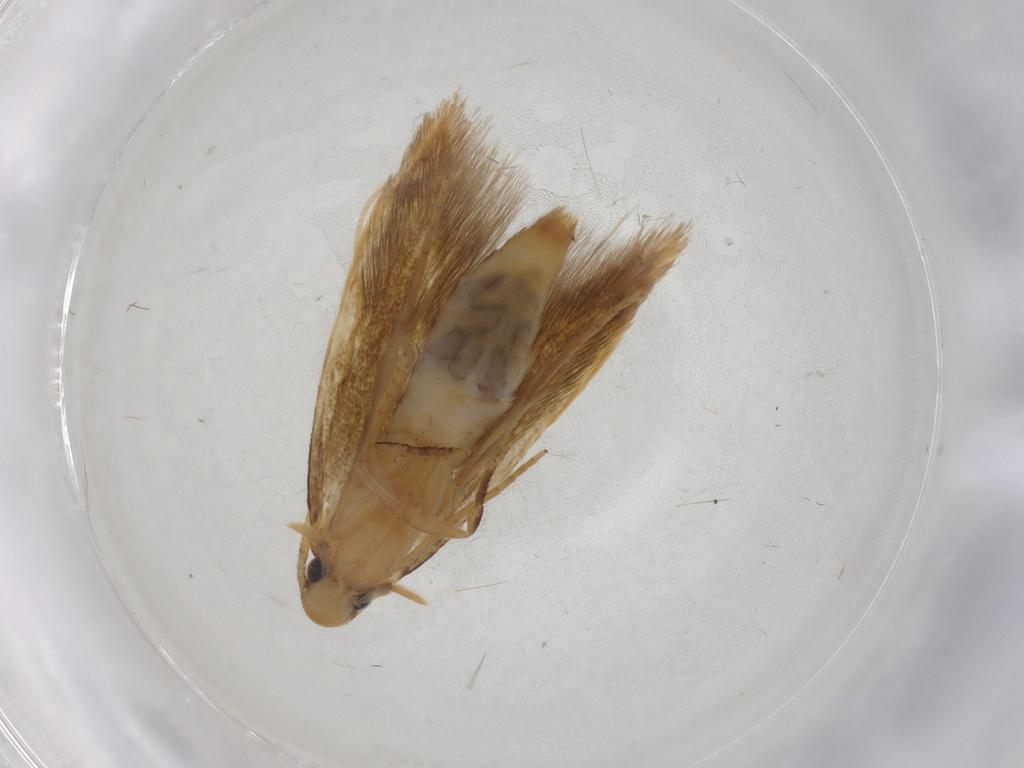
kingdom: Animalia
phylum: Arthropoda
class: Insecta
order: Lepidoptera
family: Tineidae
